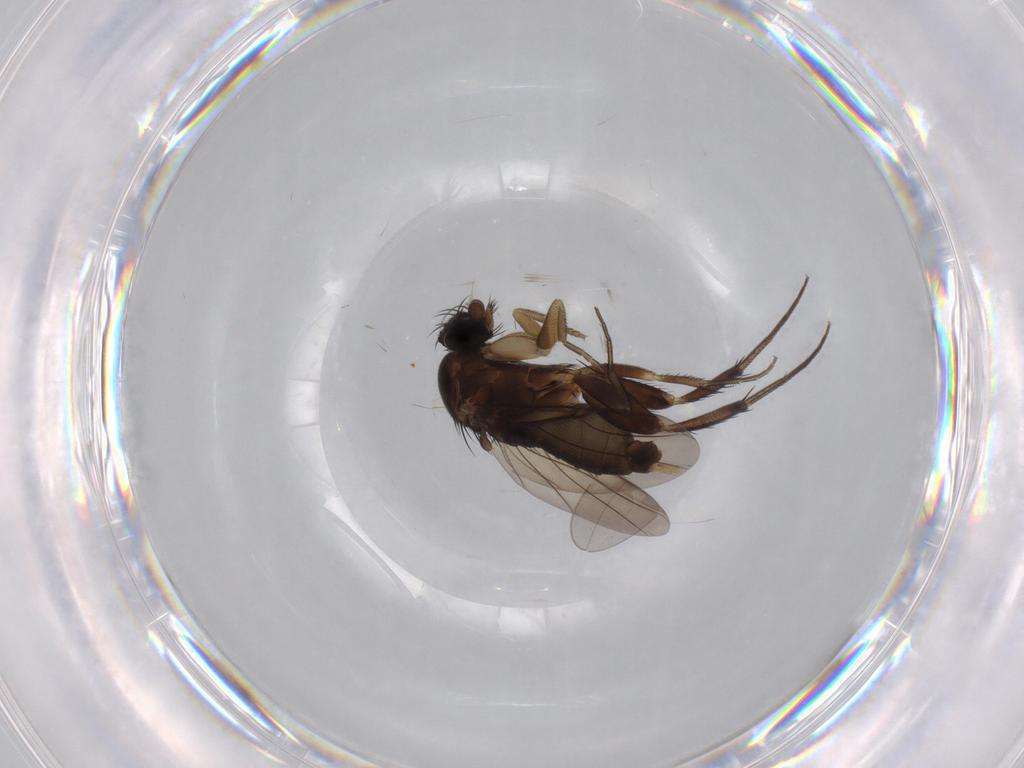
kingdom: Animalia
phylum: Arthropoda
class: Insecta
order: Diptera
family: Phoridae
